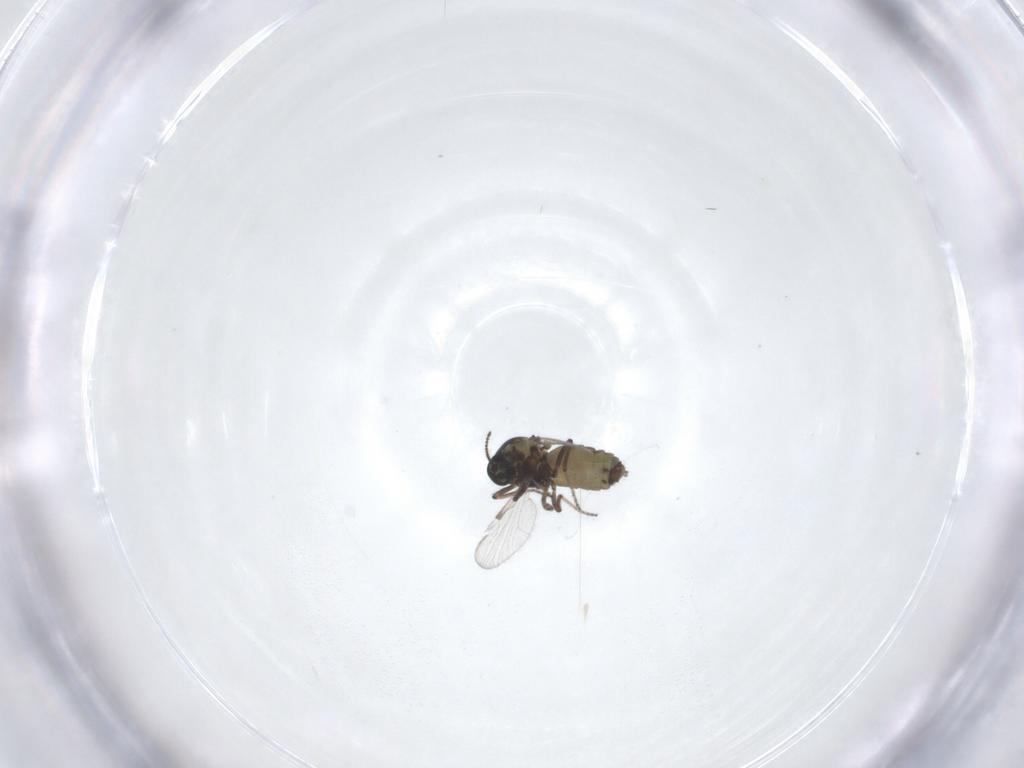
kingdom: Animalia
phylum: Arthropoda
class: Insecta
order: Diptera
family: Ceratopogonidae
